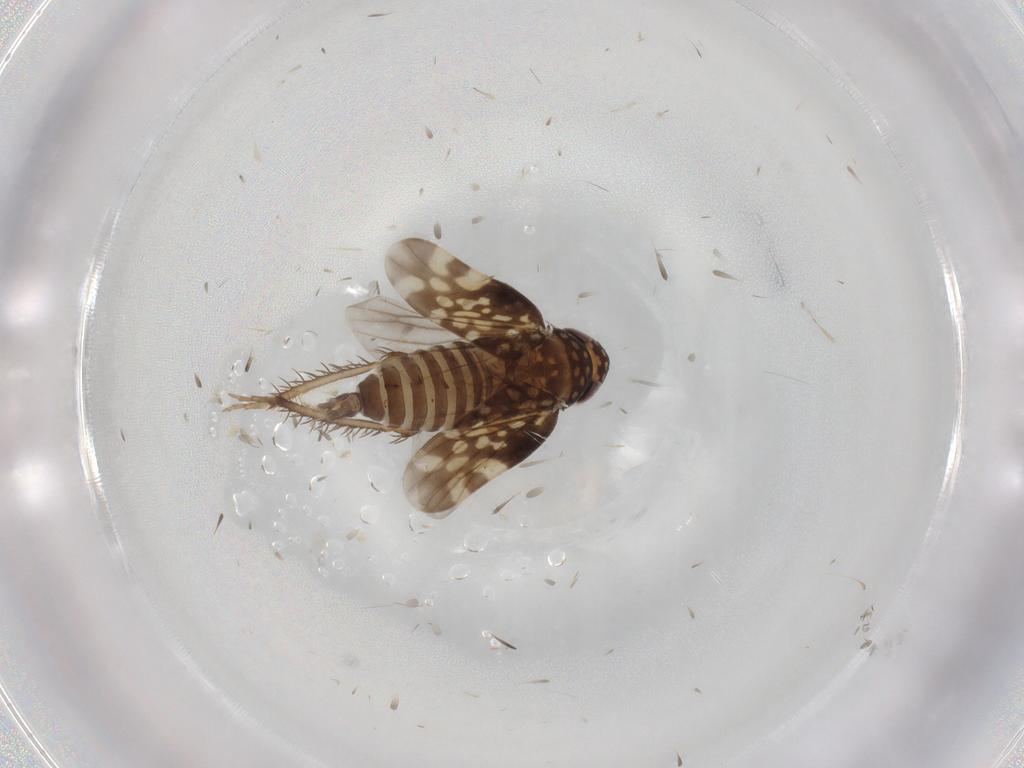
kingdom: Animalia
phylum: Arthropoda
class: Insecta
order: Hemiptera
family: Cicadellidae
